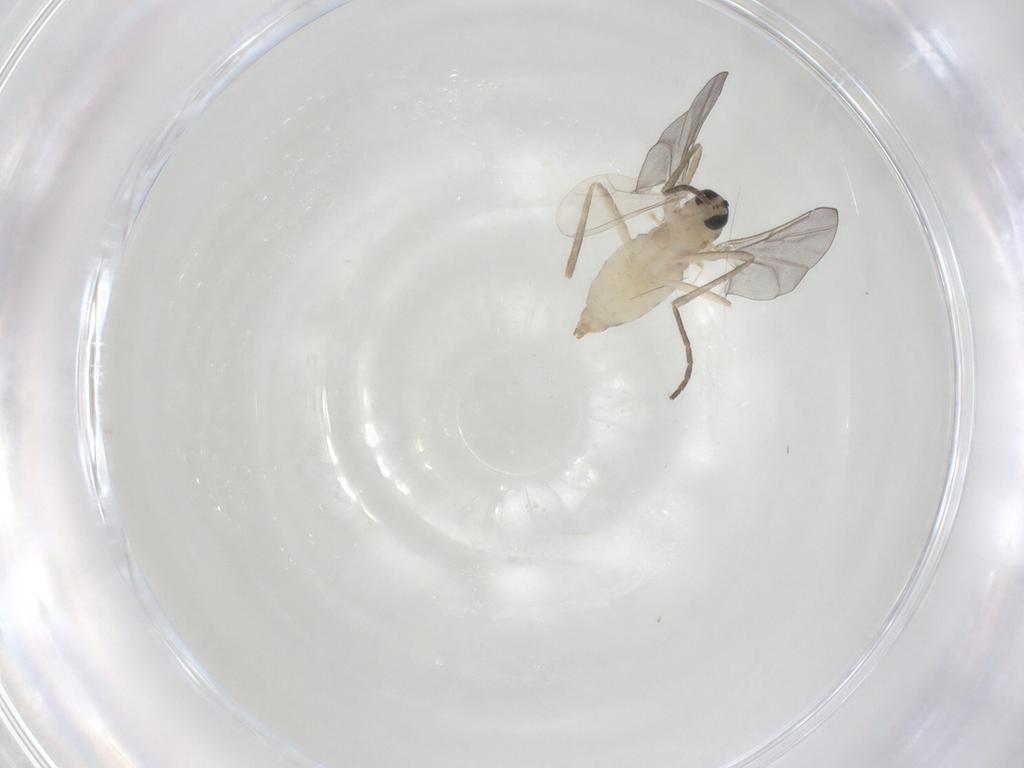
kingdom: Animalia
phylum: Arthropoda
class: Insecta
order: Diptera
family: Cecidomyiidae
